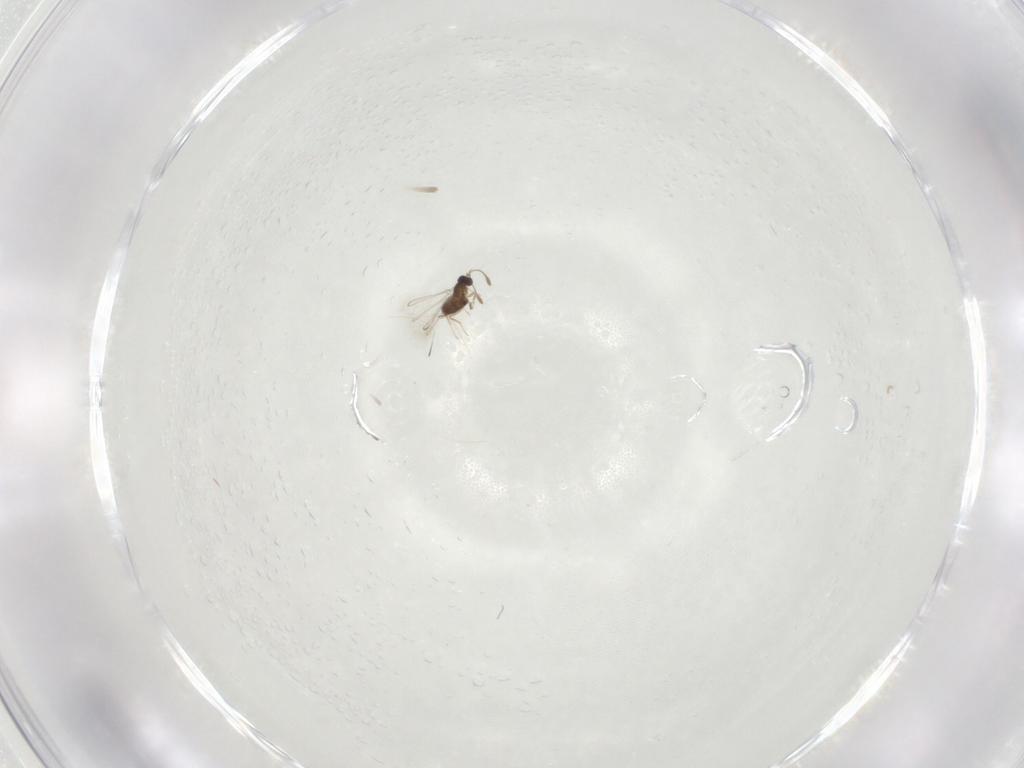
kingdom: Animalia
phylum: Arthropoda
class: Insecta
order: Hymenoptera
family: Mymaridae
